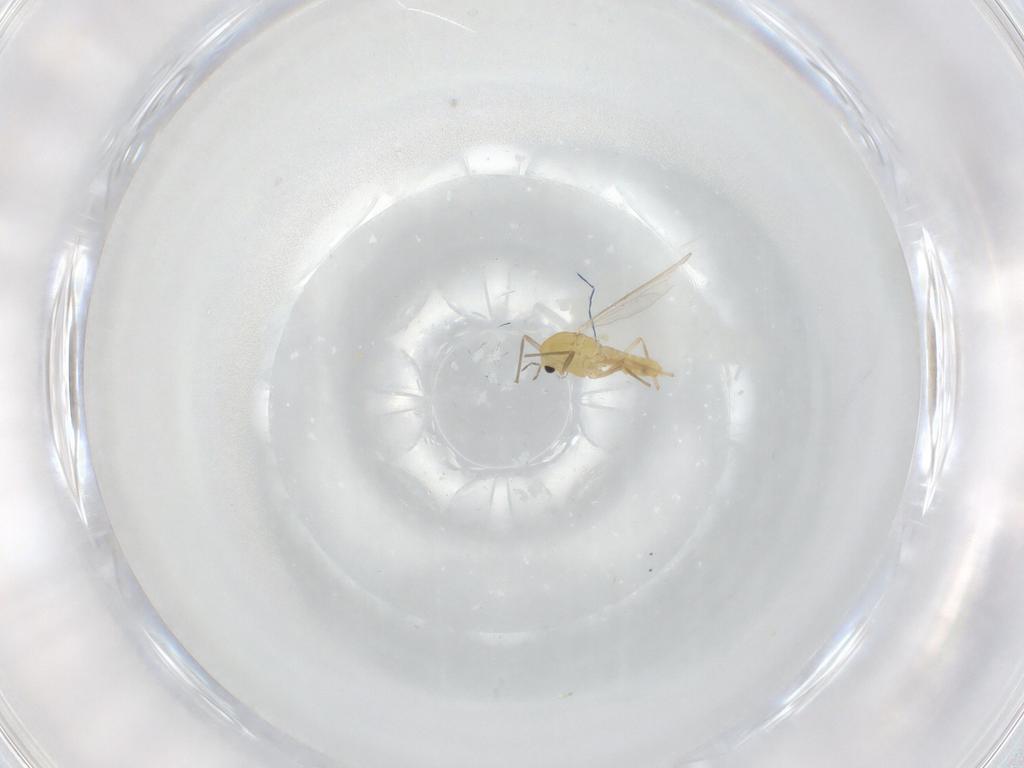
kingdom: Animalia
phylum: Arthropoda
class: Insecta
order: Diptera
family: Chironomidae
